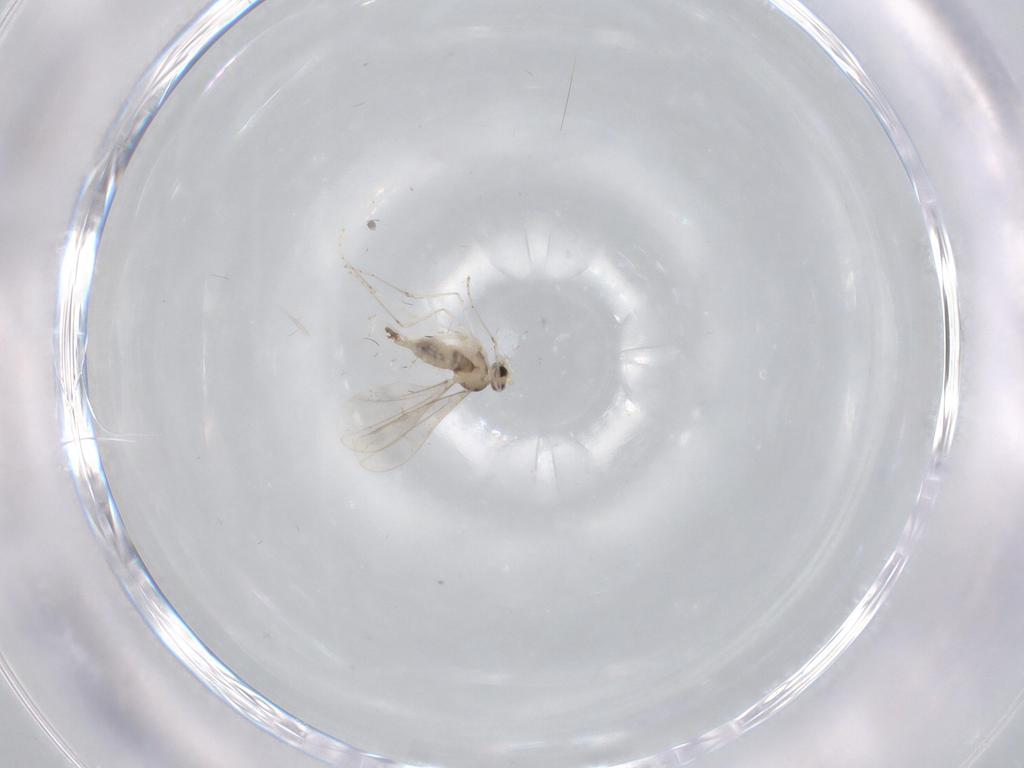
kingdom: Animalia
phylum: Arthropoda
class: Insecta
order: Diptera
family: Cecidomyiidae
